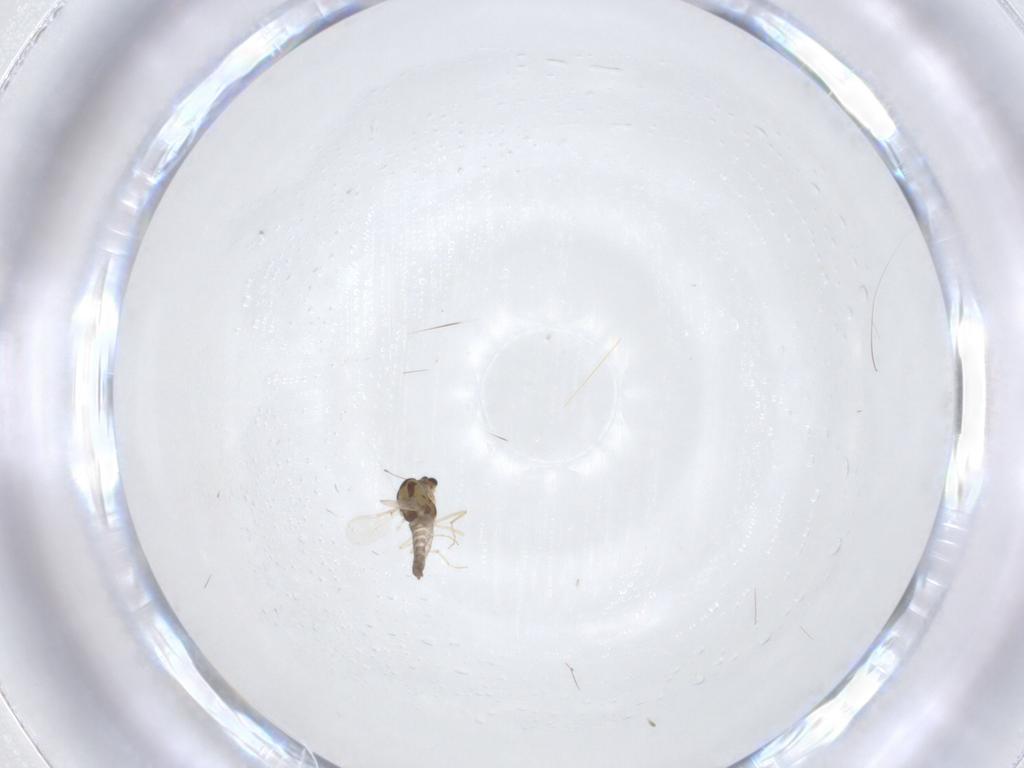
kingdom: Animalia
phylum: Arthropoda
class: Insecta
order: Diptera
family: Chironomidae
